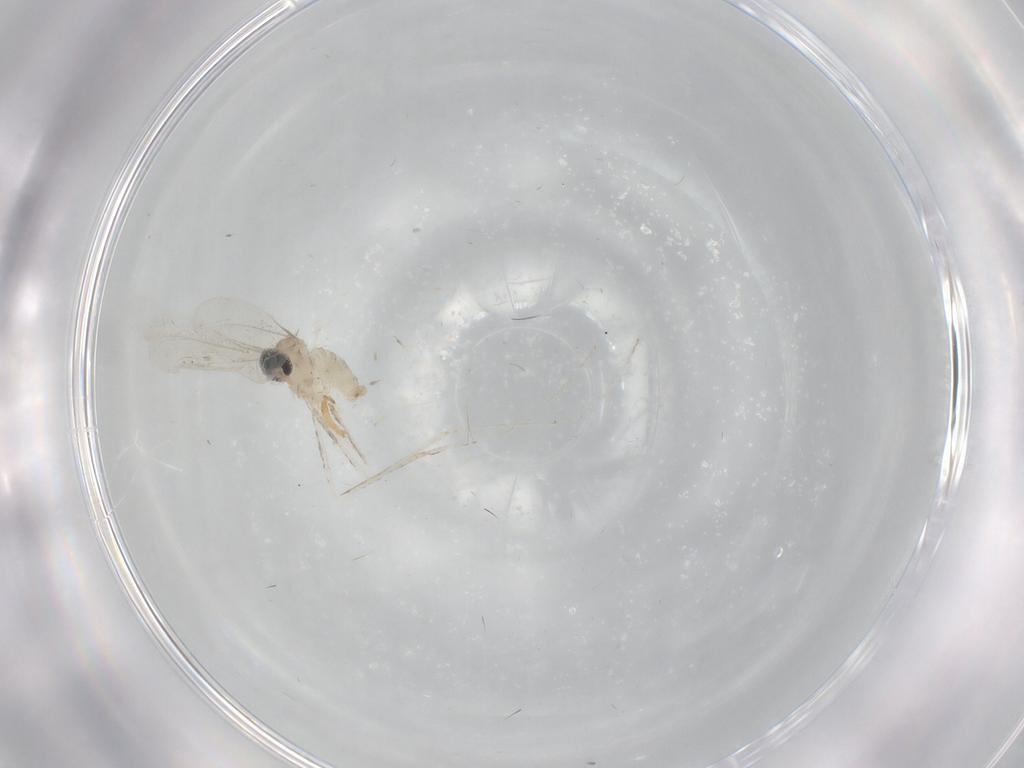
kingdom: Animalia
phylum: Arthropoda
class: Insecta
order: Diptera
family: Cecidomyiidae
